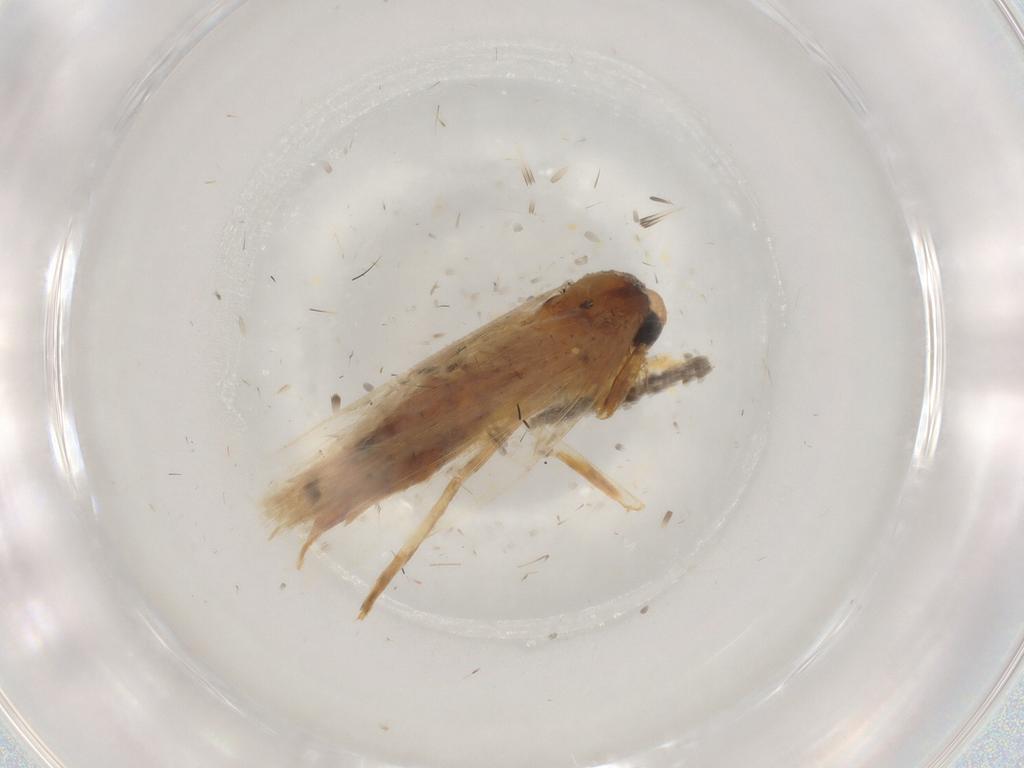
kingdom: Animalia
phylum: Arthropoda
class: Insecta
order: Lepidoptera
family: Depressariidae
